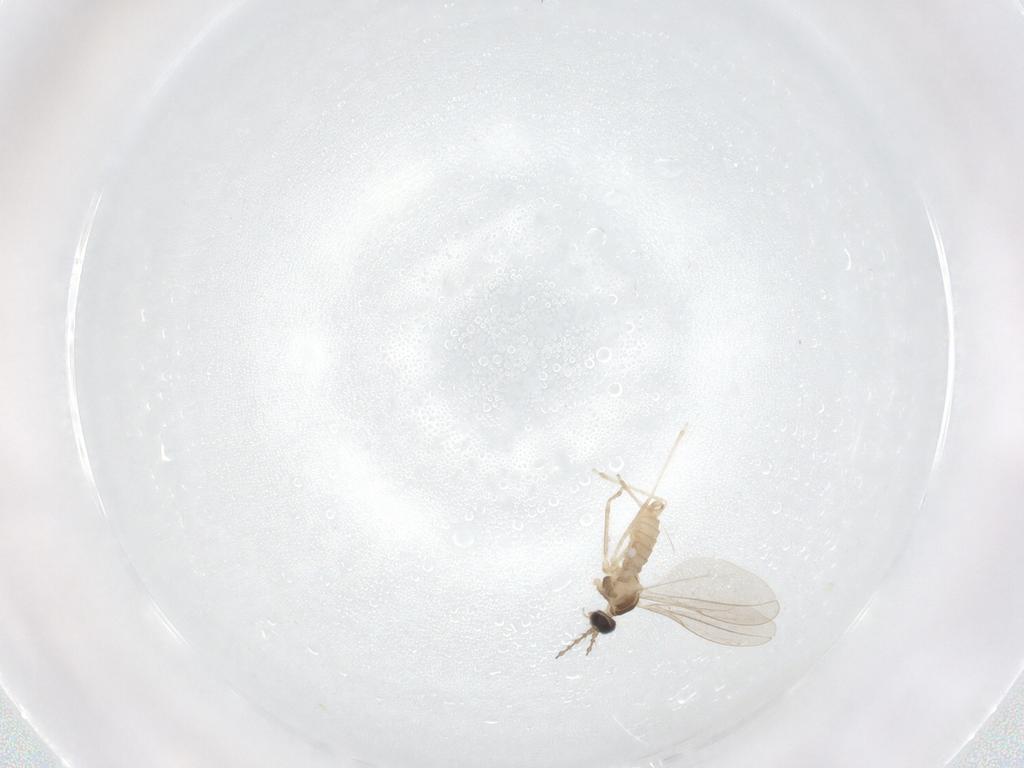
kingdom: Animalia
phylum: Arthropoda
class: Insecta
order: Diptera
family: Cecidomyiidae
